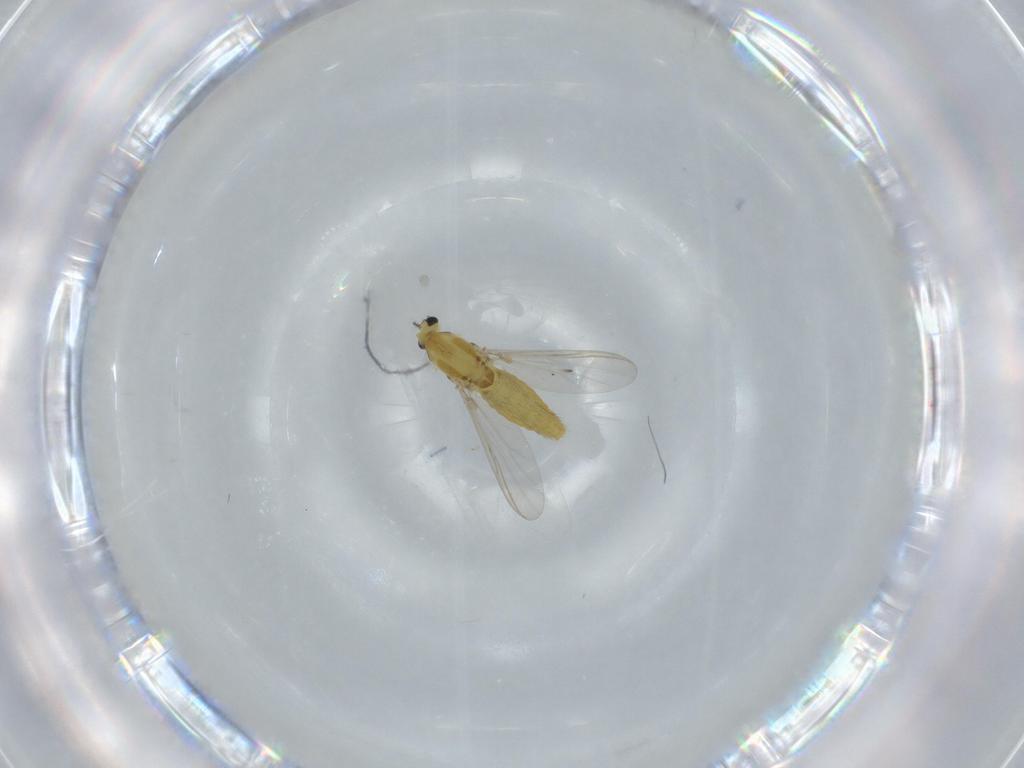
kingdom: Animalia
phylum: Arthropoda
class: Insecta
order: Diptera
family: Chironomidae
